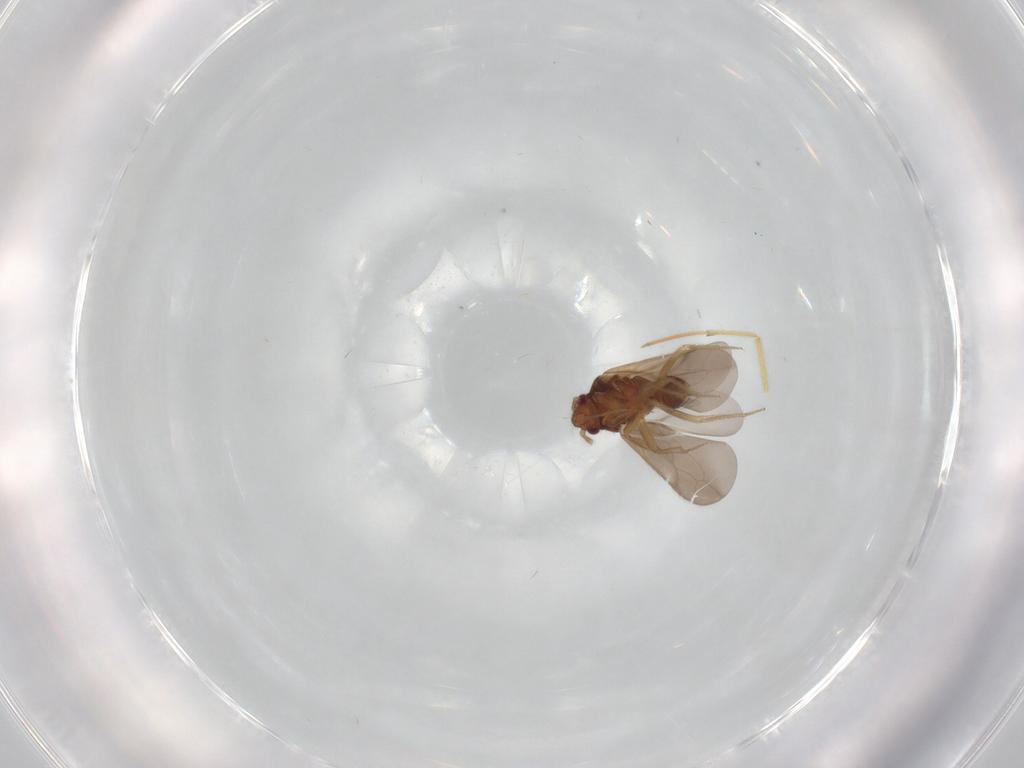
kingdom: Animalia
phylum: Arthropoda
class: Insecta
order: Hemiptera
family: Ceratocombidae
